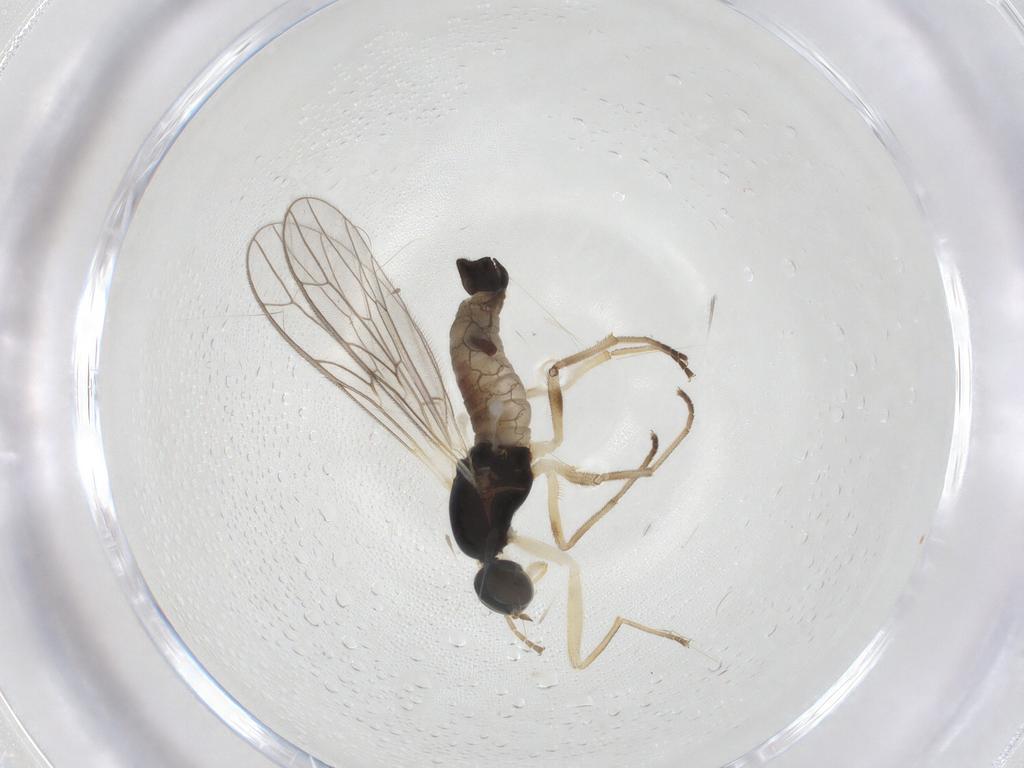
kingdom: Animalia
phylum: Arthropoda
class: Insecta
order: Diptera
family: Empididae
